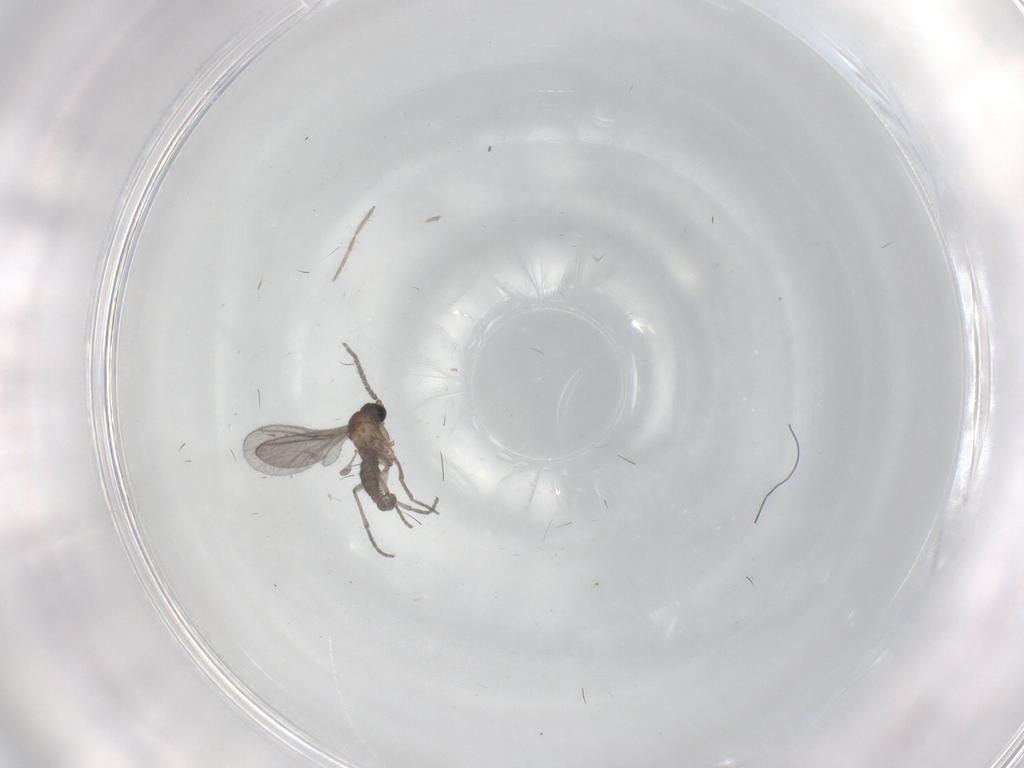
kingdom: Animalia
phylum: Arthropoda
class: Insecta
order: Diptera
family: Chironomidae
